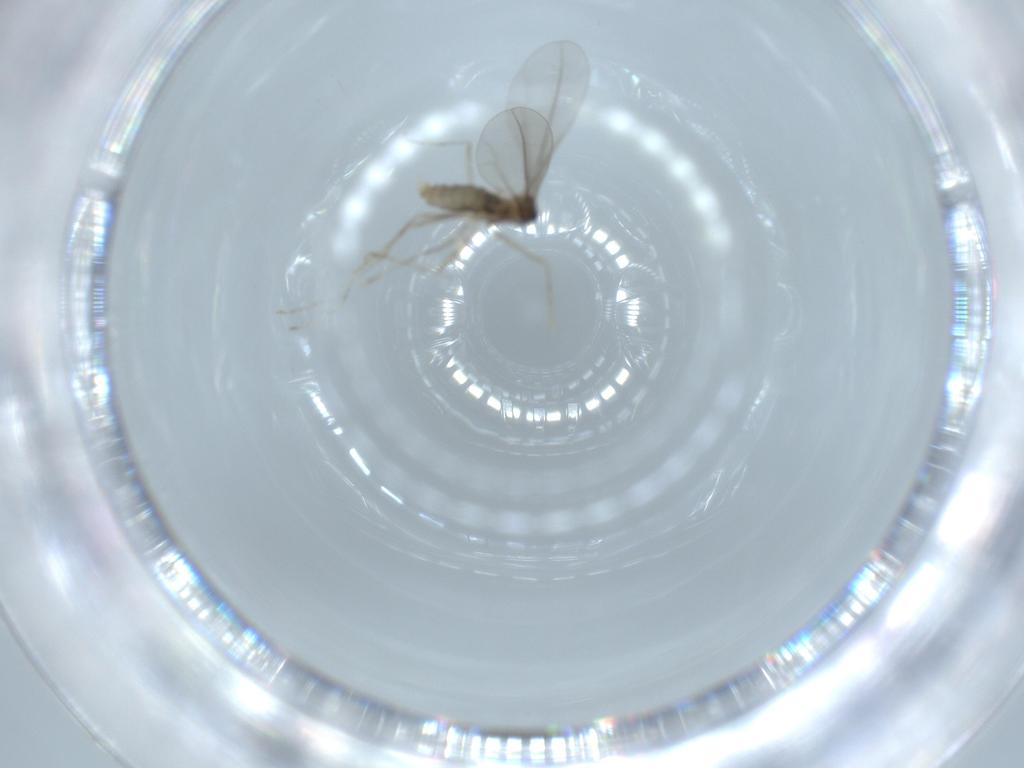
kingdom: Animalia
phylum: Arthropoda
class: Insecta
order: Diptera
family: Cecidomyiidae
